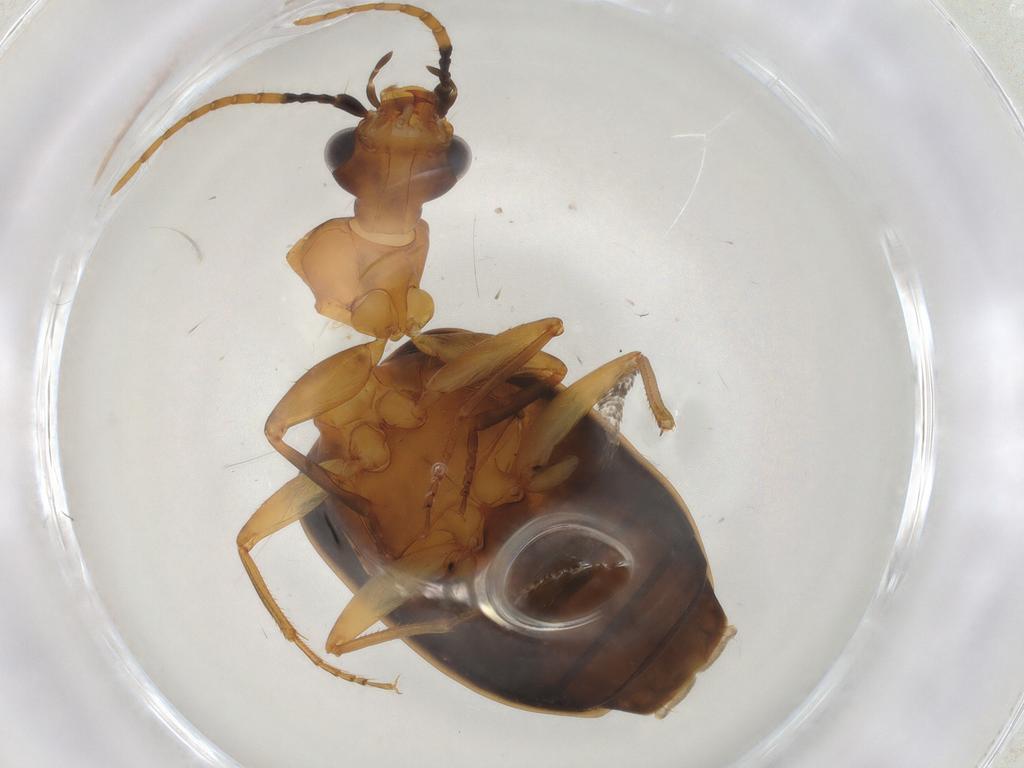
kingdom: Animalia
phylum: Arthropoda
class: Insecta
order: Coleoptera
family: Carabidae
